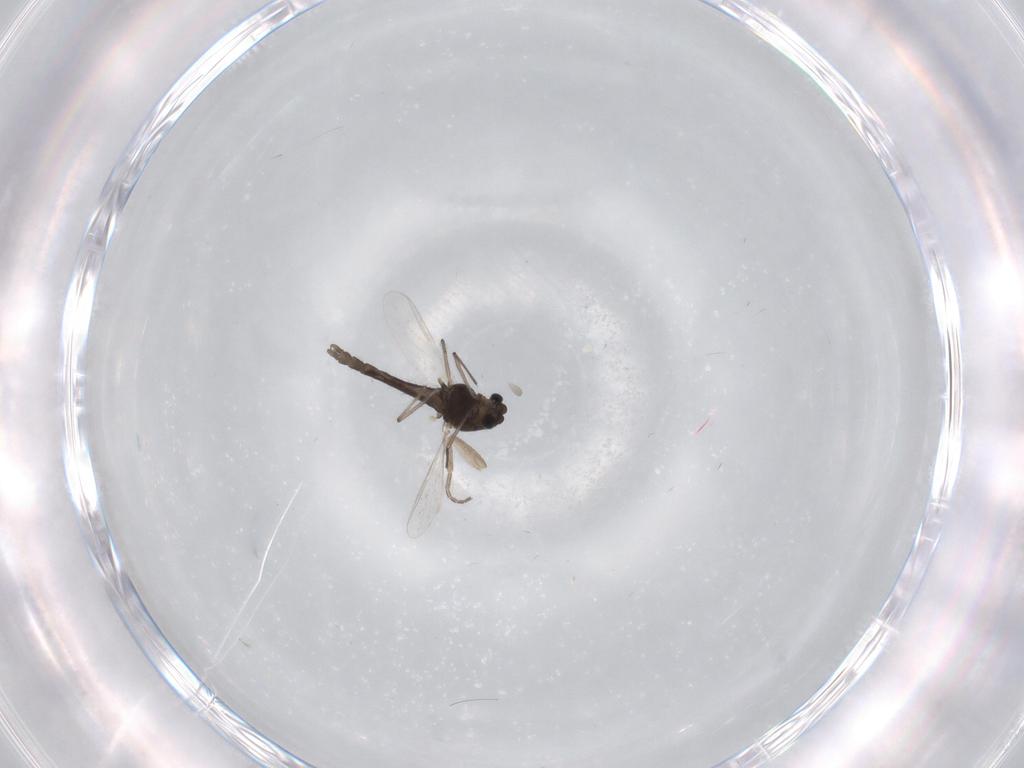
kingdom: Animalia
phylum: Arthropoda
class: Insecta
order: Diptera
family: Chironomidae
